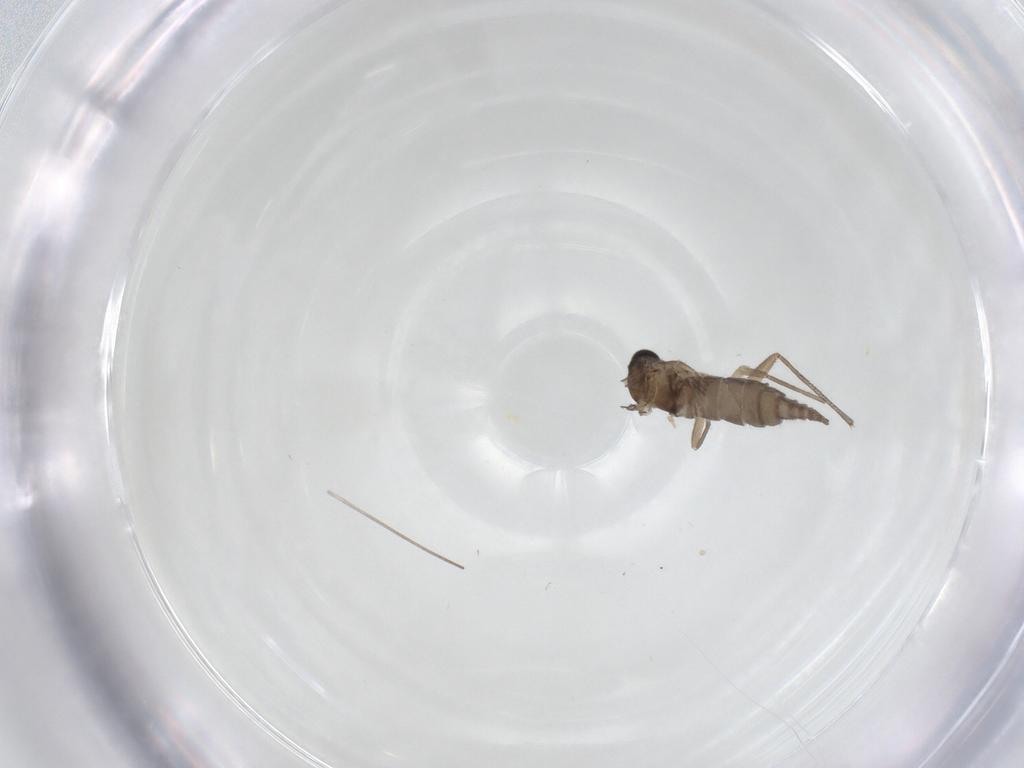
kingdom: Animalia
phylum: Arthropoda
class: Insecta
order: Diptera
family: Sciaridae
